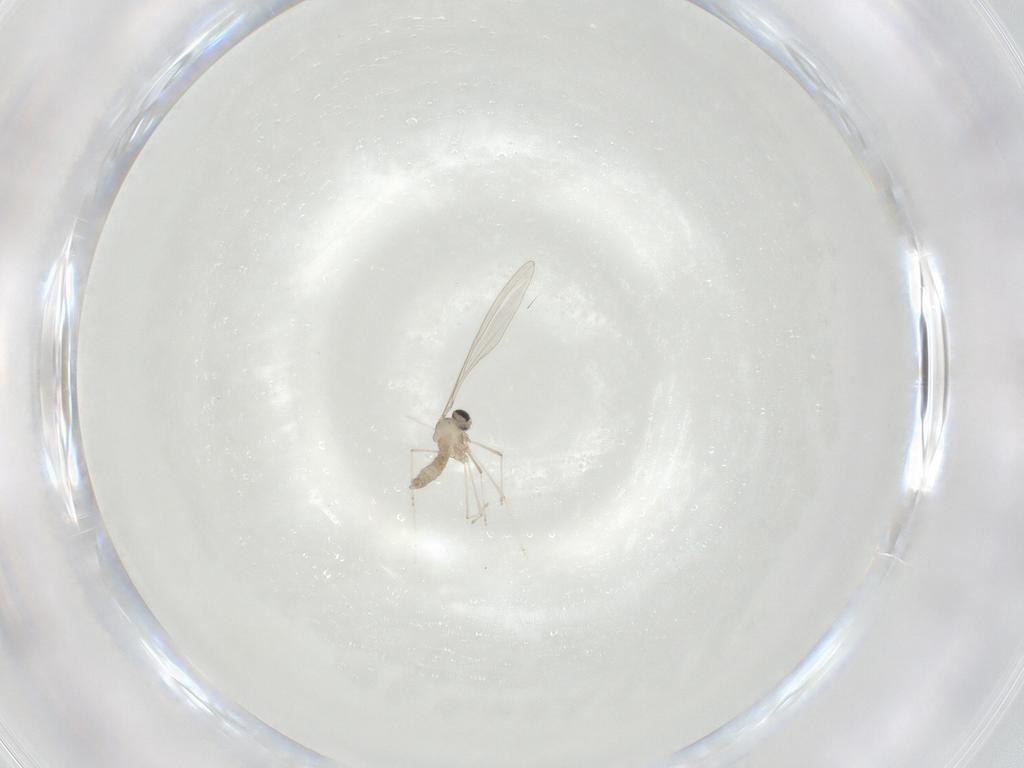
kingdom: Animalia
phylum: Arthropoda
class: Insecta
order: Diptera
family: Cecidomyiidae
